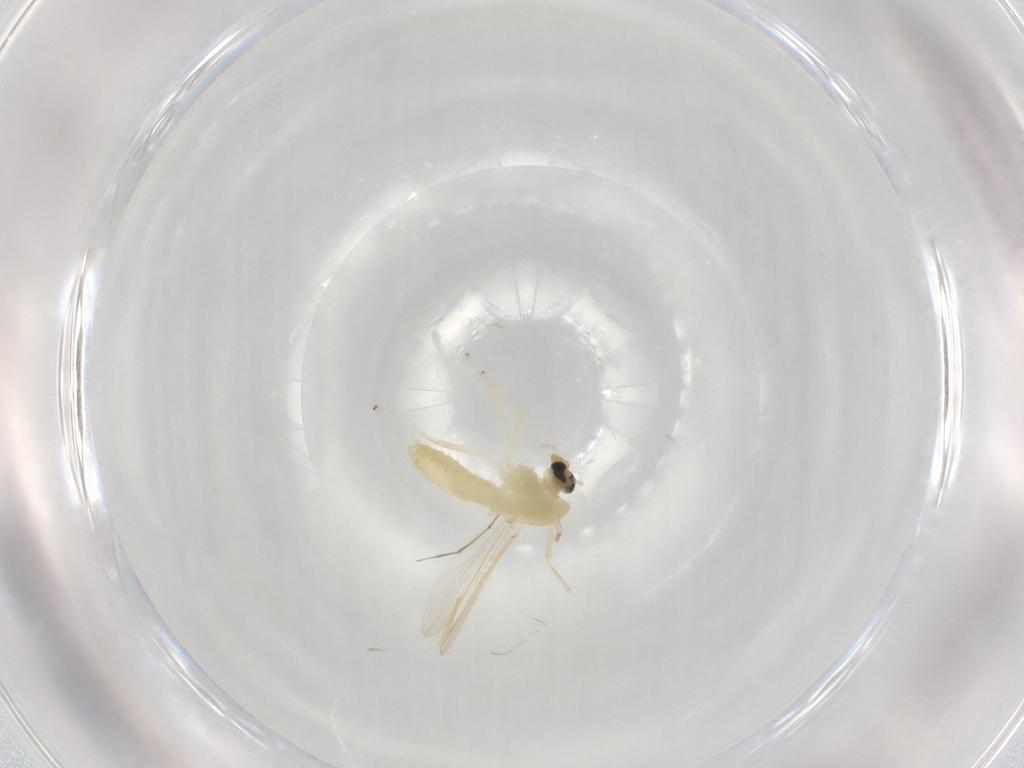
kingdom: Animalia
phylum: Arthropoda
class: Insecta
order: Diptera
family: Chironomidae
